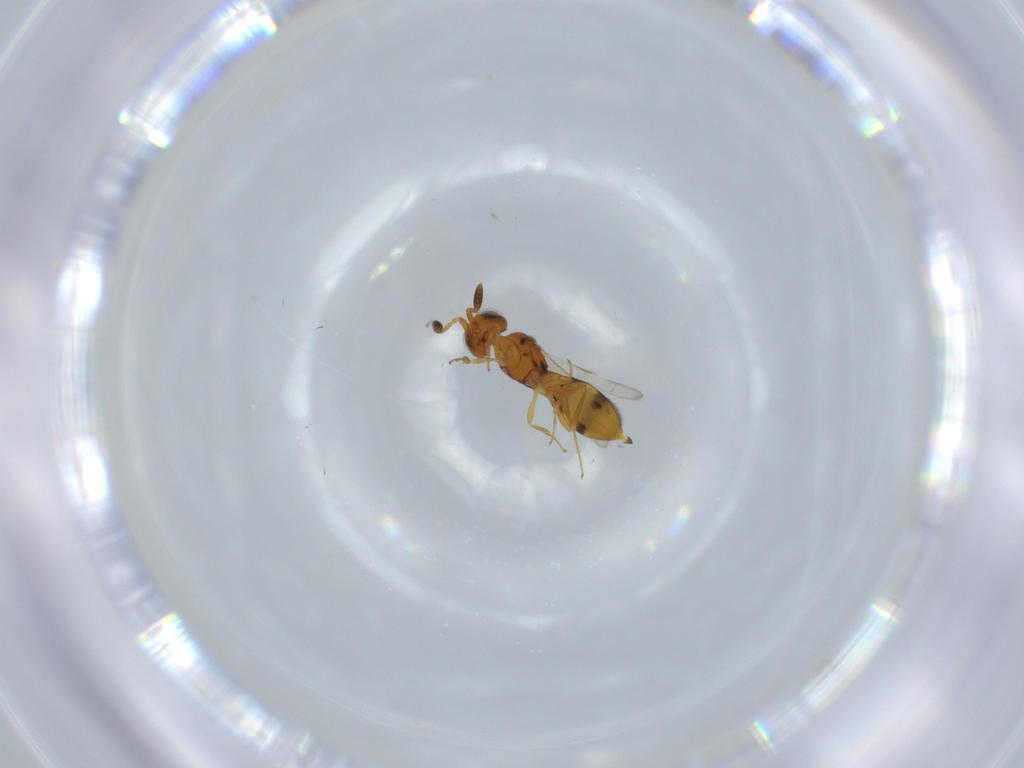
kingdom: Animalia
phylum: Arthropoda
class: Insecta
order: Hymenoptera
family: Scelionidae
